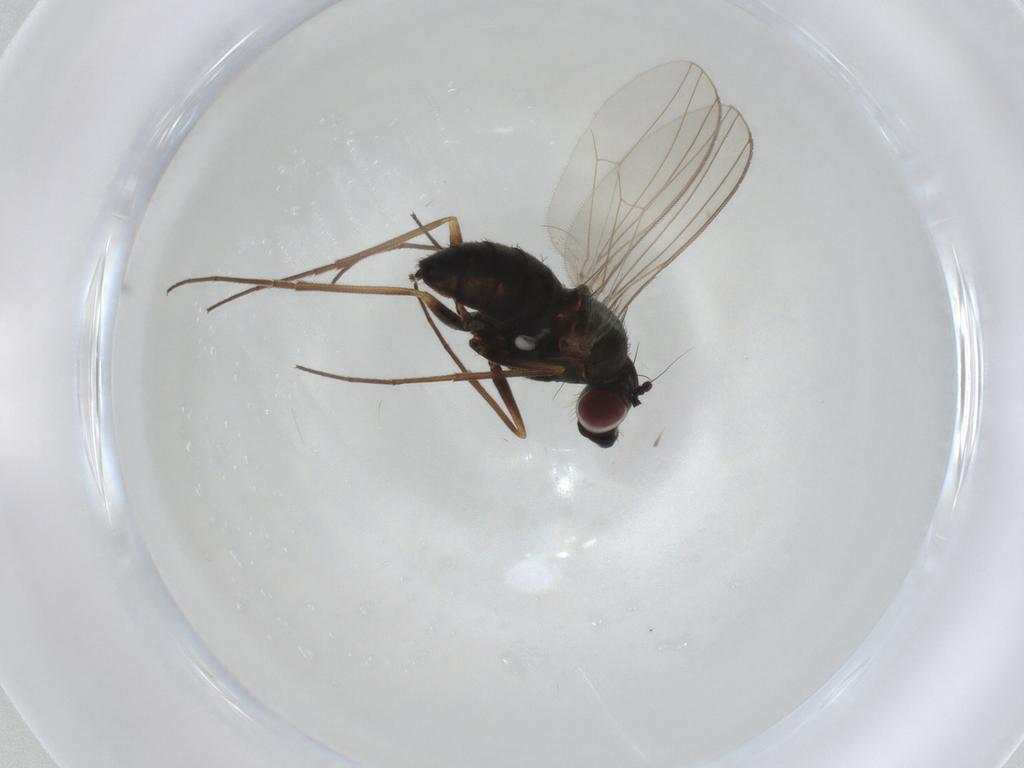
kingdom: Animalia
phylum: Arthropoda
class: Insecta
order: Diptera
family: Dolichopodidae
